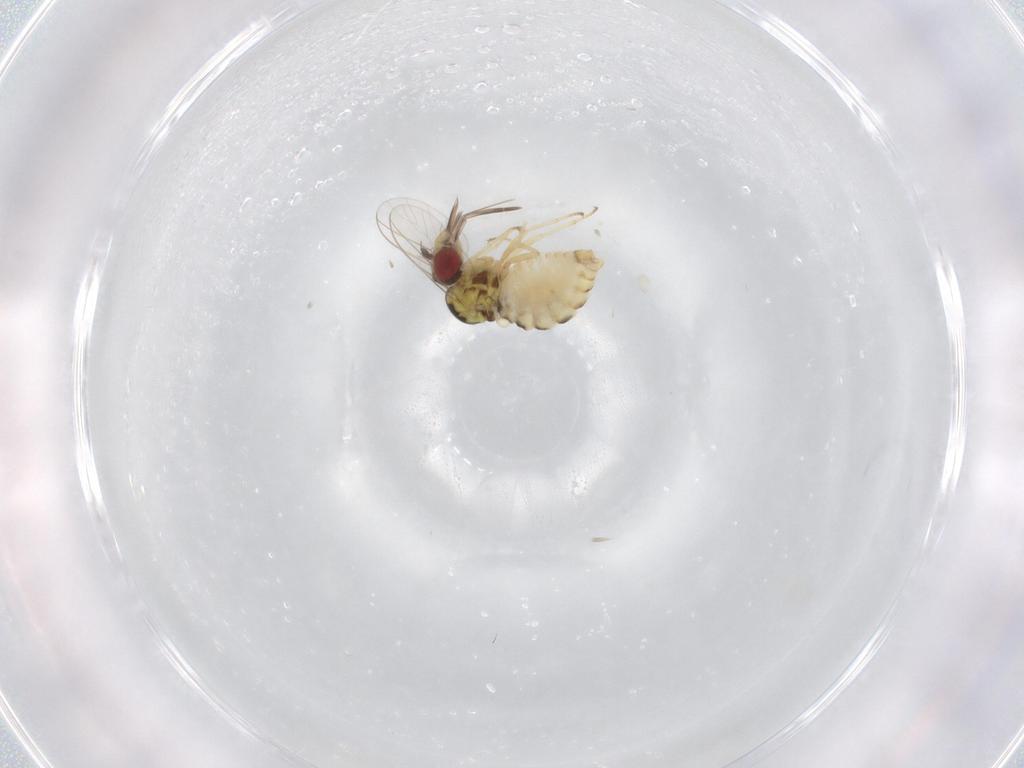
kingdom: Animalia
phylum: Arthropoda
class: Insecta
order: Diptera
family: Bombyliidae
